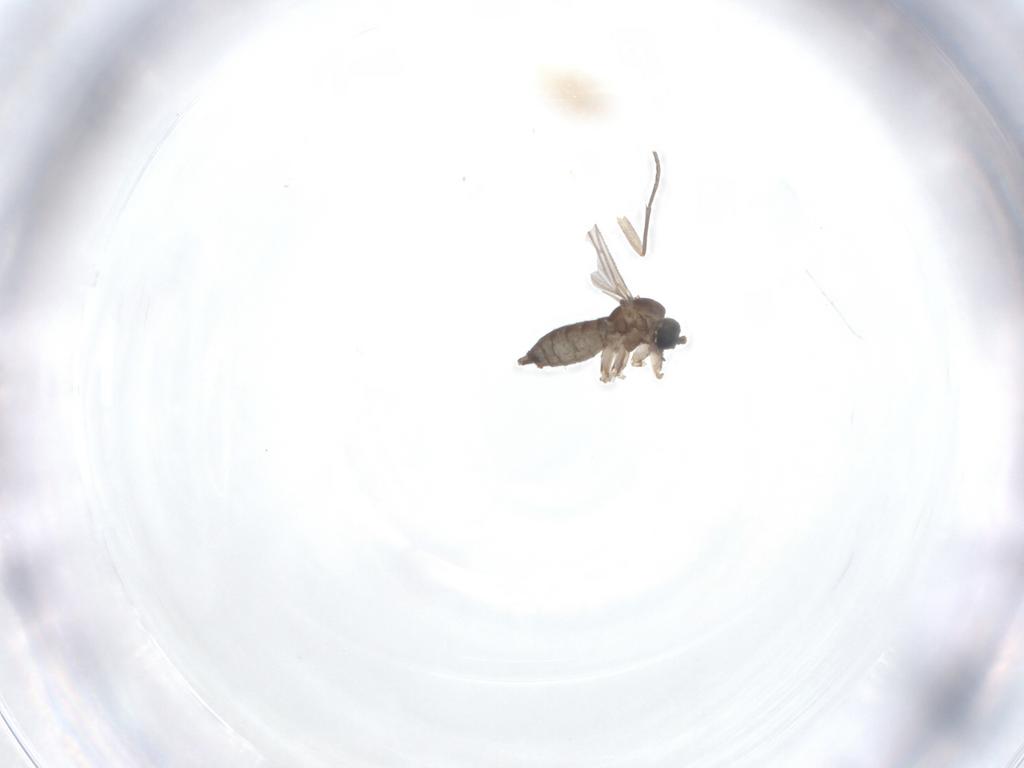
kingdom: Animalia
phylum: Arthropoda
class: Insecta
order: Diptera
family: Sciaridae
